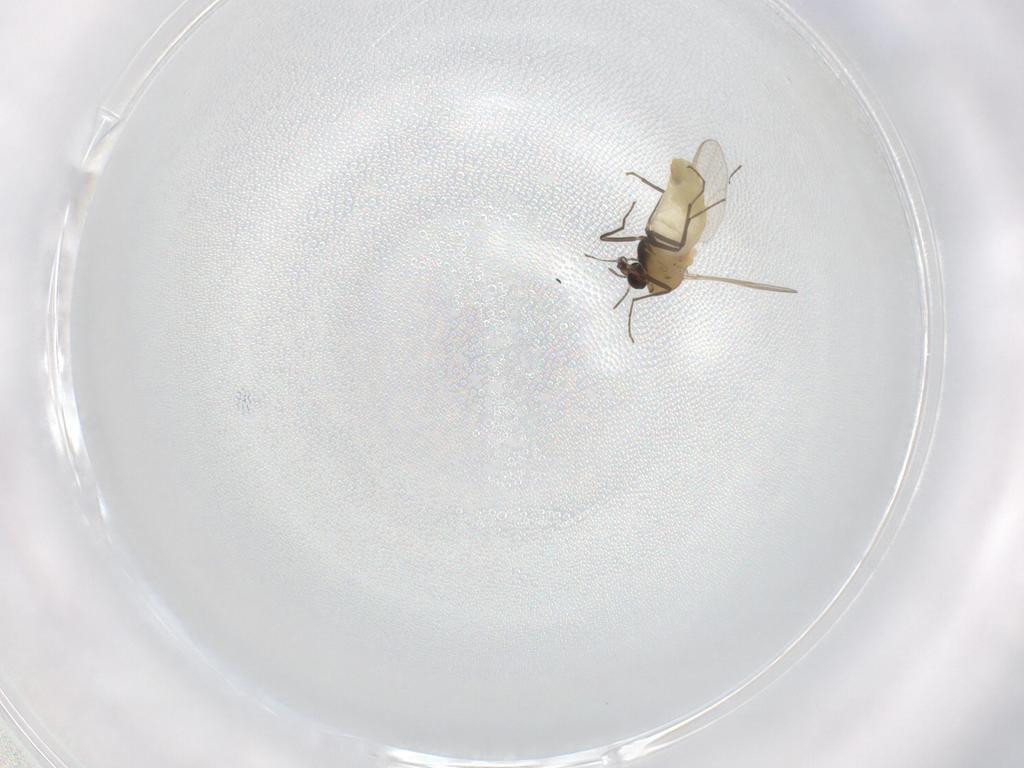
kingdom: Animalia
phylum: Arthropoda
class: Insecta
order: Diptera
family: Chironomidae
